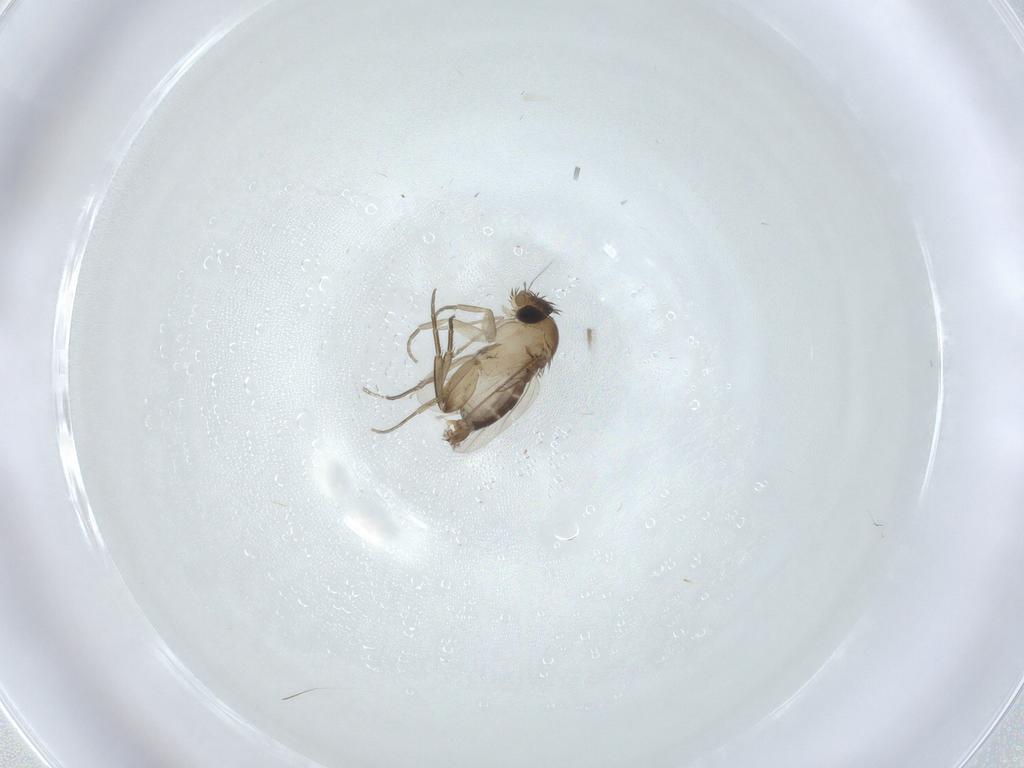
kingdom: Animalia
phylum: Arthropoda
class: Insecta
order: Diptera
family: Phoridae
